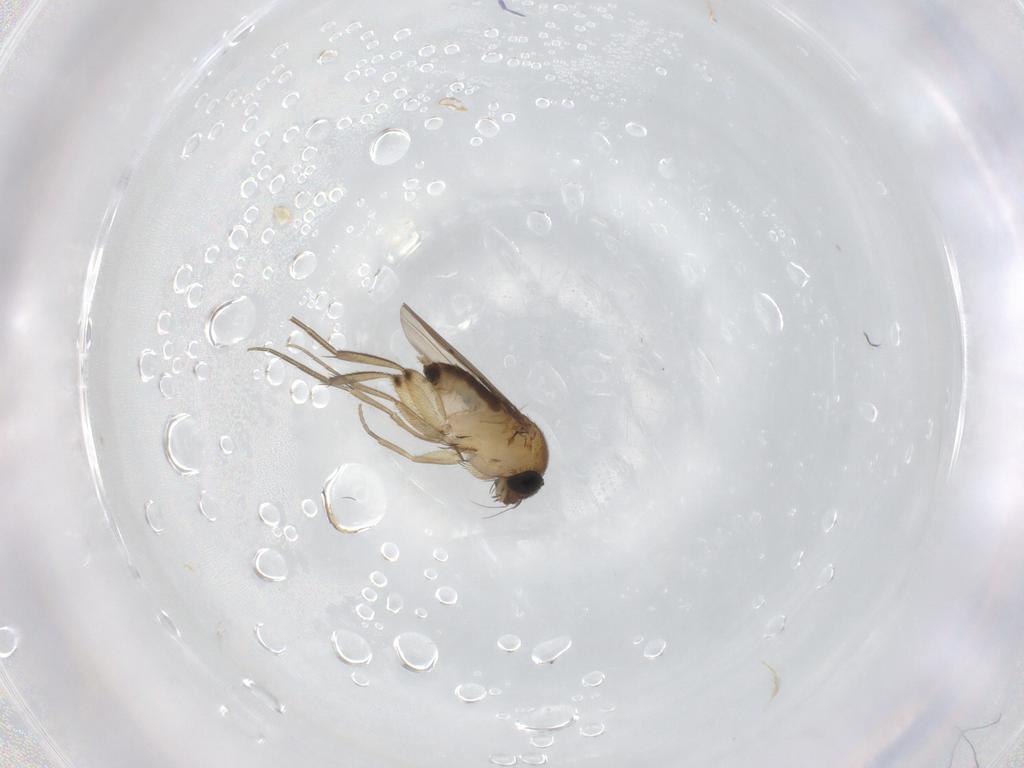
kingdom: Animalia
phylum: Arthropoda
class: Insecta
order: Diptera
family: Phoridae
